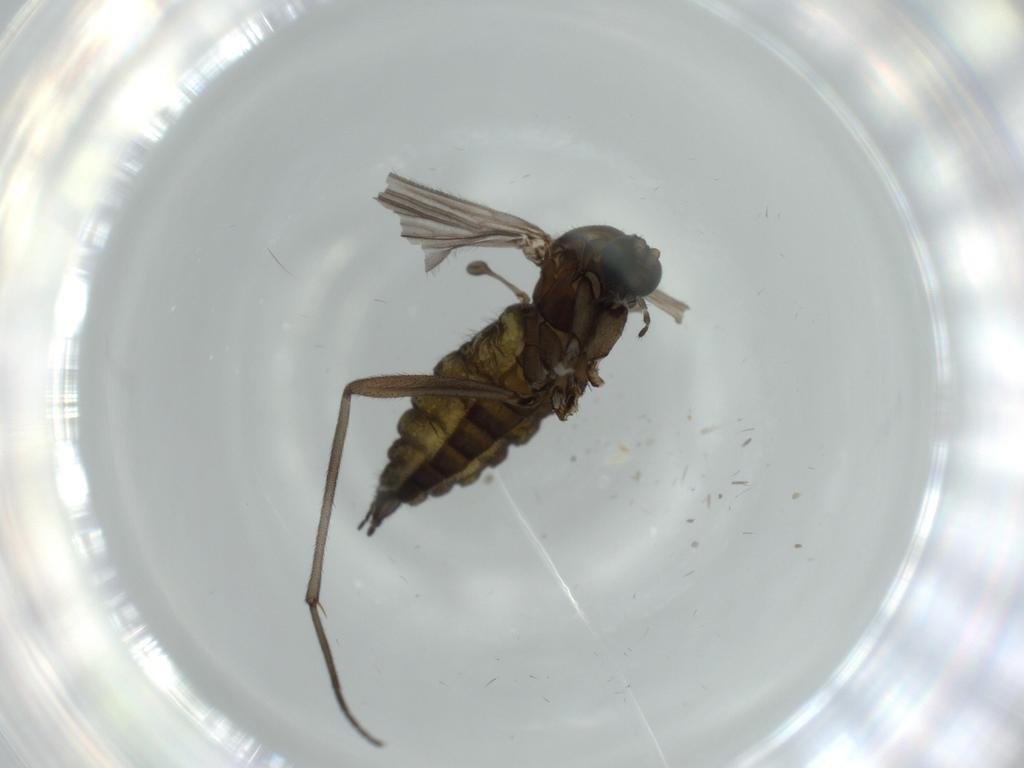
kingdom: Animalia
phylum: Arthropoda
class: Insecta
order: Diptera
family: Sciaridae
